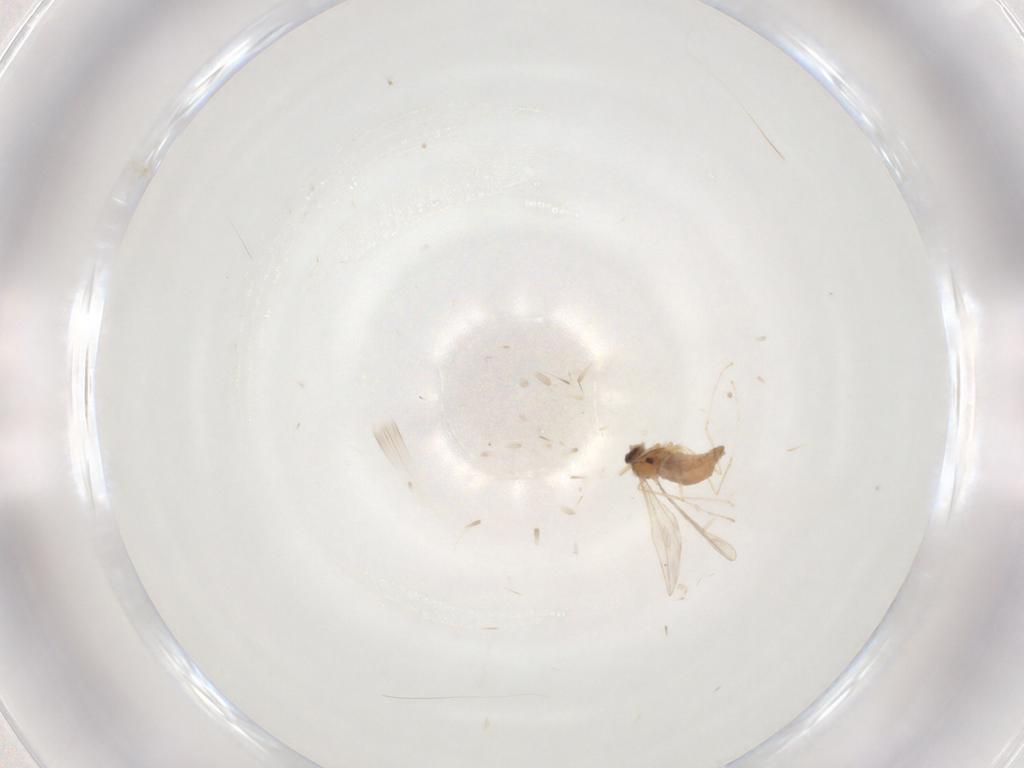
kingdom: Animalia
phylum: Arthropoda
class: Insecta
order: Diptera
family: Cecidomyiidae
